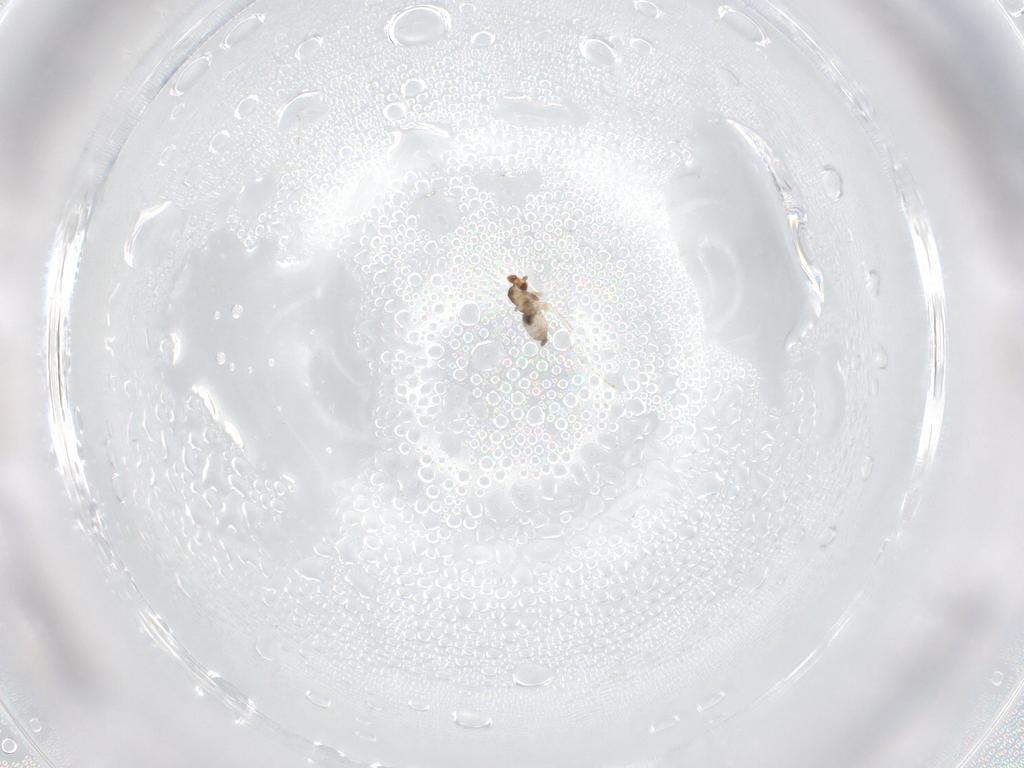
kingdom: Animalia
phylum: Arthropoda
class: Insecta
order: Diptera
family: Cecidomyiidae
